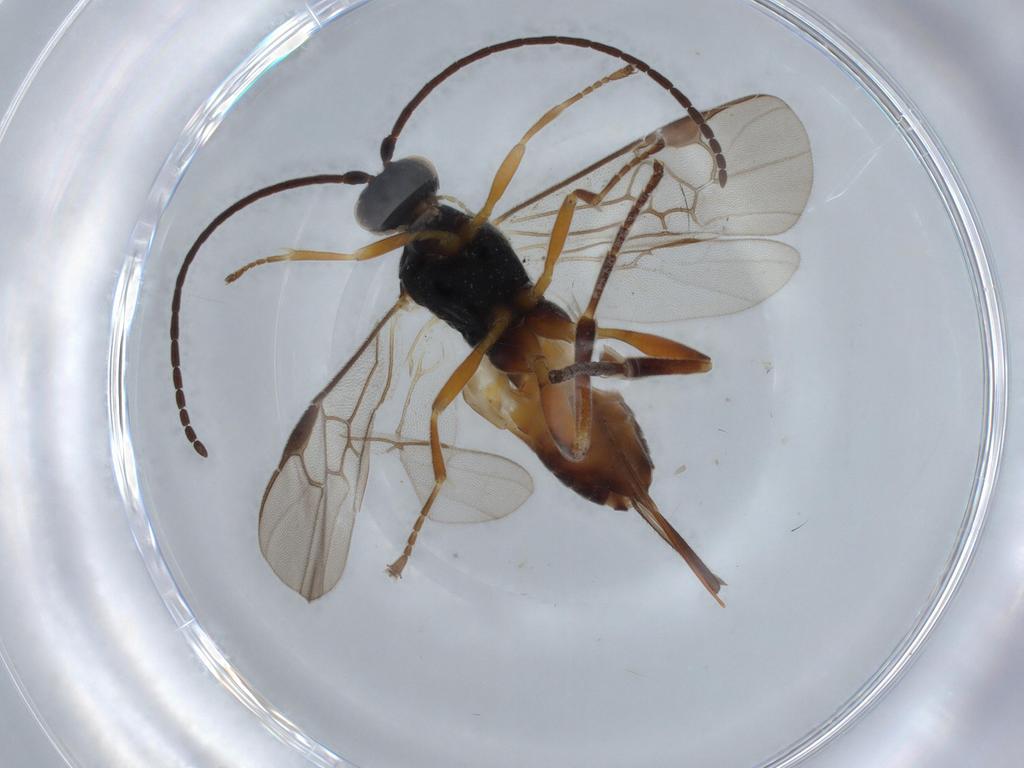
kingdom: Animalia
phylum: Arthropoda
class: Insecta
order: Hymenoptera
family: Braconidae
